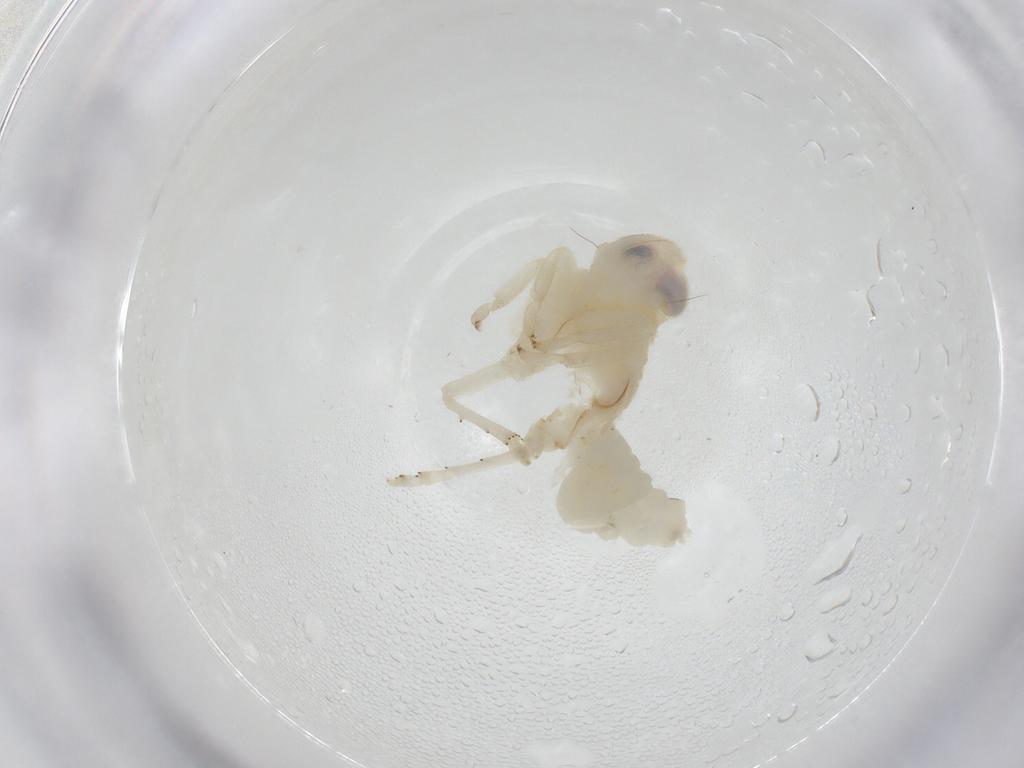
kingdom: Animalia
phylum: Arthropoda
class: Insecta
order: Hemiptera
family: Nogodinidae
